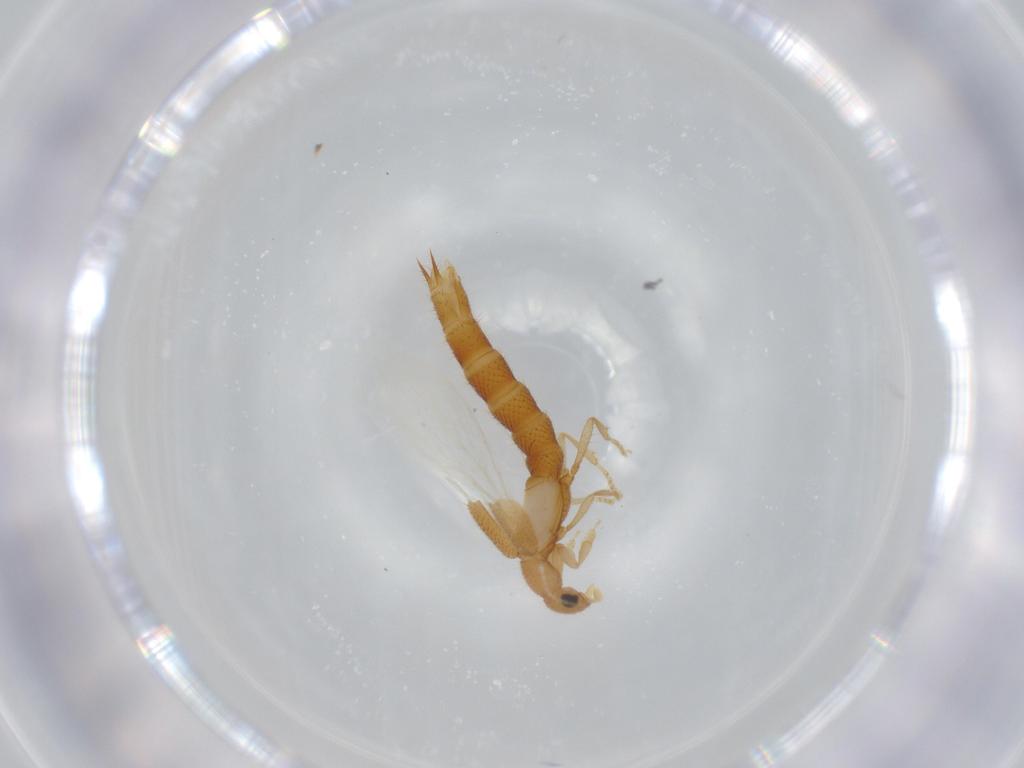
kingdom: Animalia
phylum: Arthropoda
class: Insecta
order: Coleoptera
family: Staphylinidae
